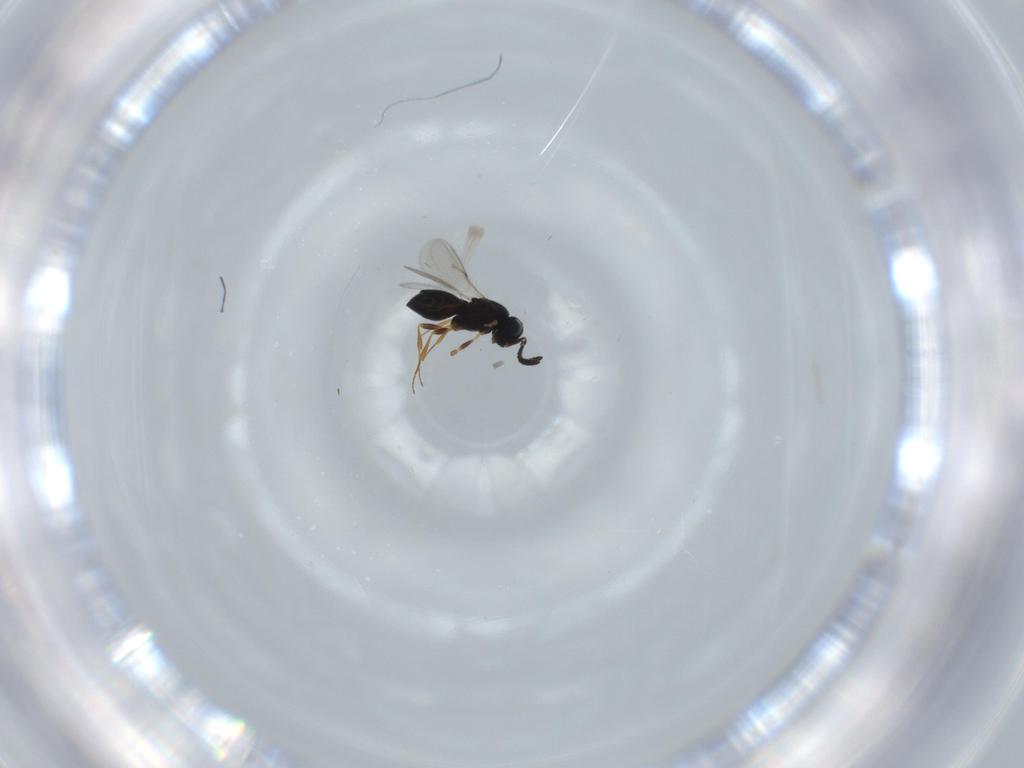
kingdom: Animalia
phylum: Arthropoda
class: Insecta
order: Hymenoptera
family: Scelionidae
